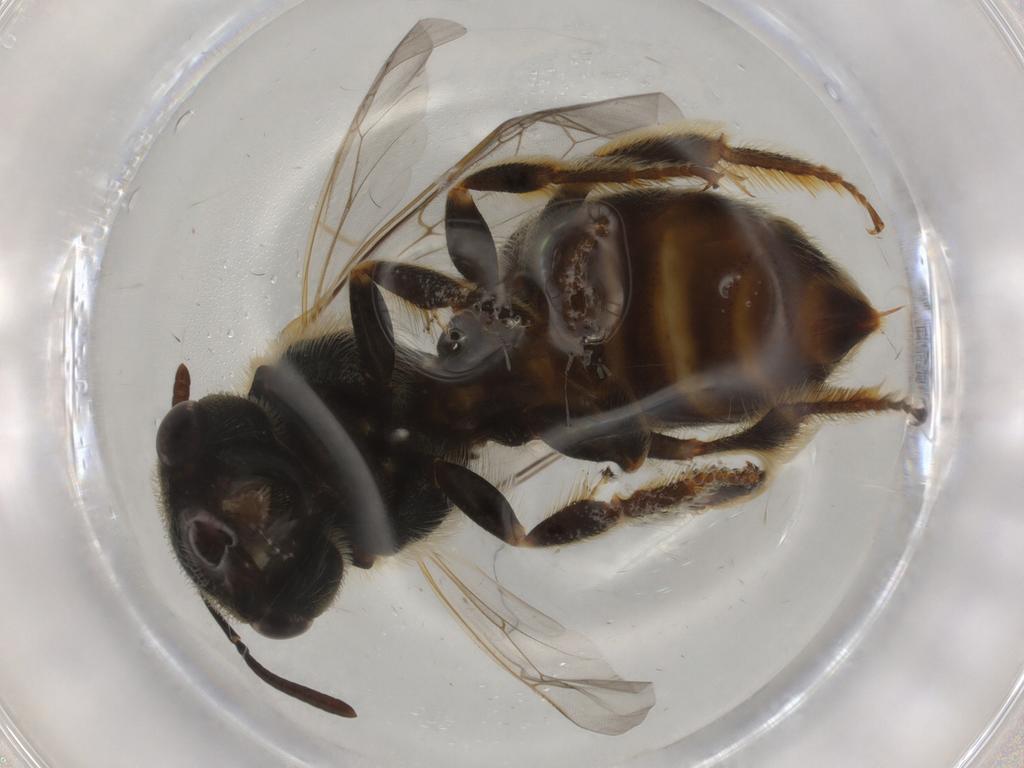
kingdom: Animalia
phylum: Arthropoda
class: Insecta
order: Hymenoptera
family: Halictidae
